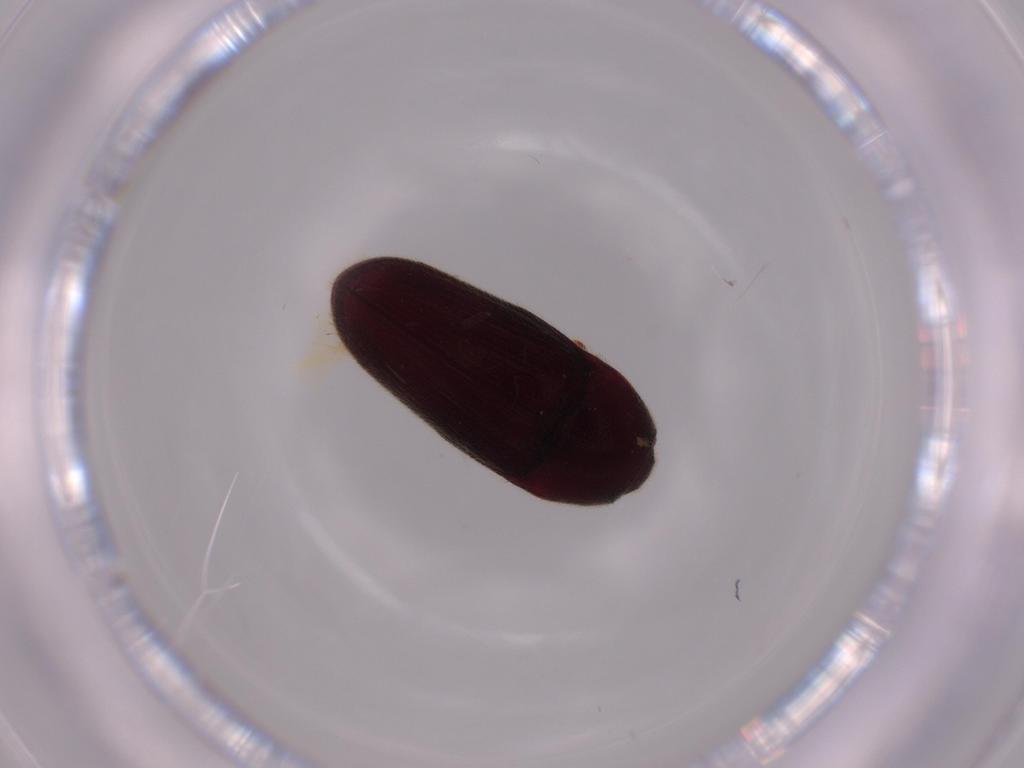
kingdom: Animalia
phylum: Arthropoda
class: Insecta
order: Coleoptera
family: Throscidae
